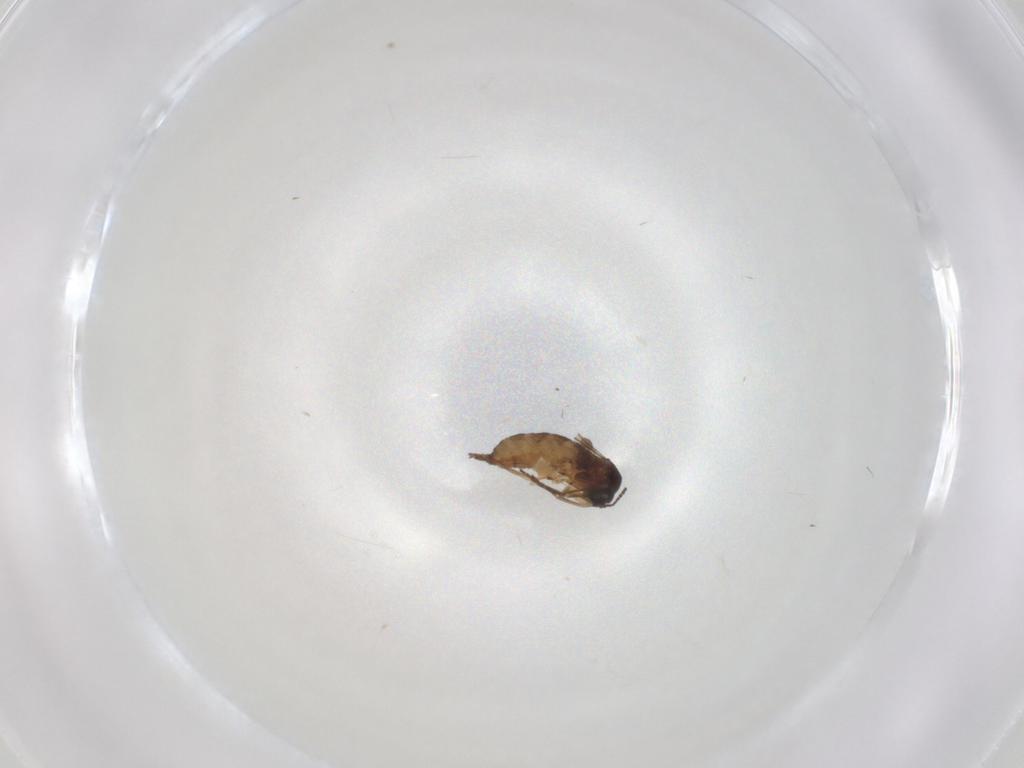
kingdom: Animalia
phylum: Arthropoda
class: Insecta
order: Diptera
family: Sciaridae
